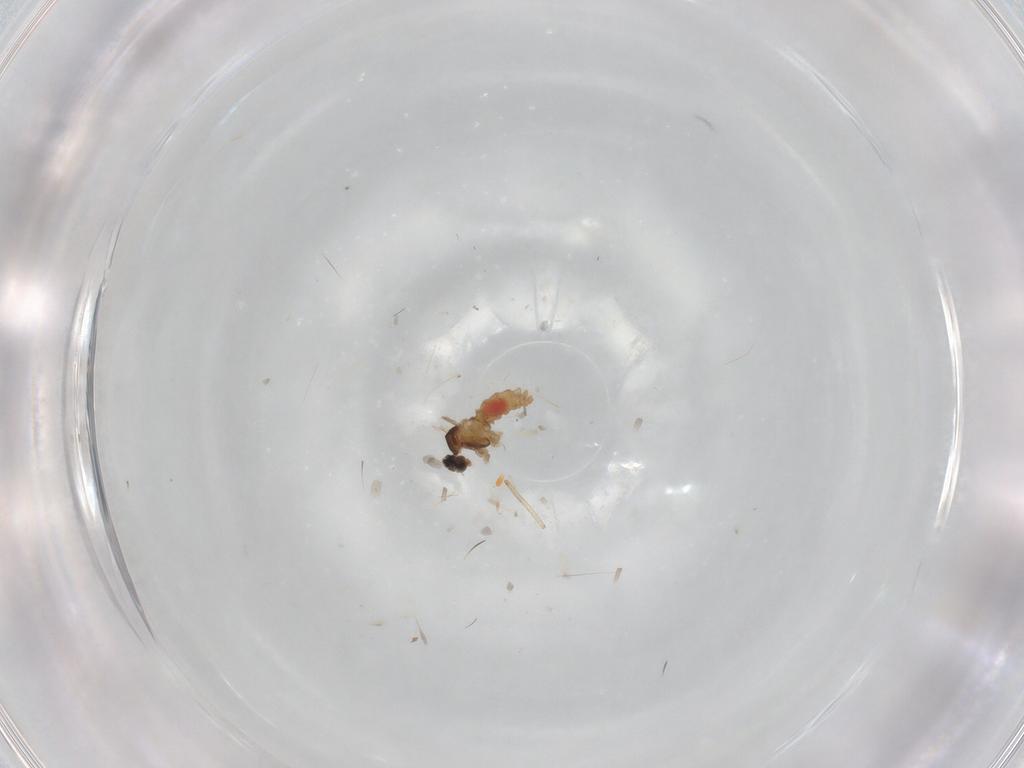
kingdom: Animalia
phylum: Arthropoda
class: Insecta
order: Diptera
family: Cecidomyiidae
